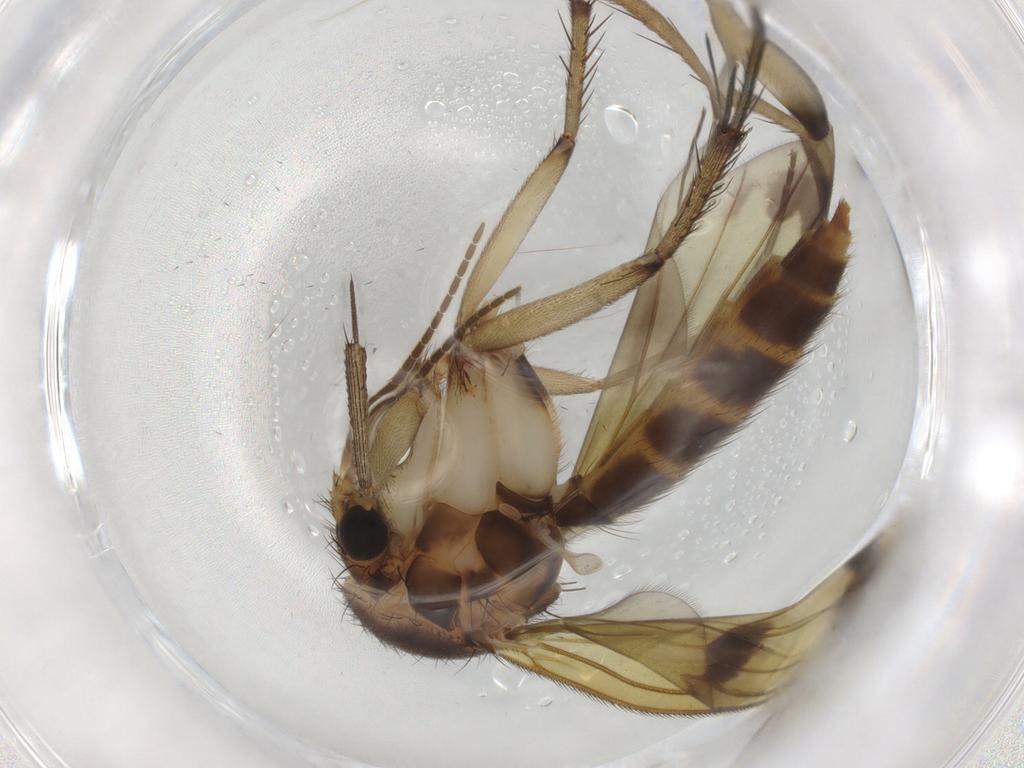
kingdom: Animalia
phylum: Arthropoda
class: Insecta
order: Diptera
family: Mycetophilidae
